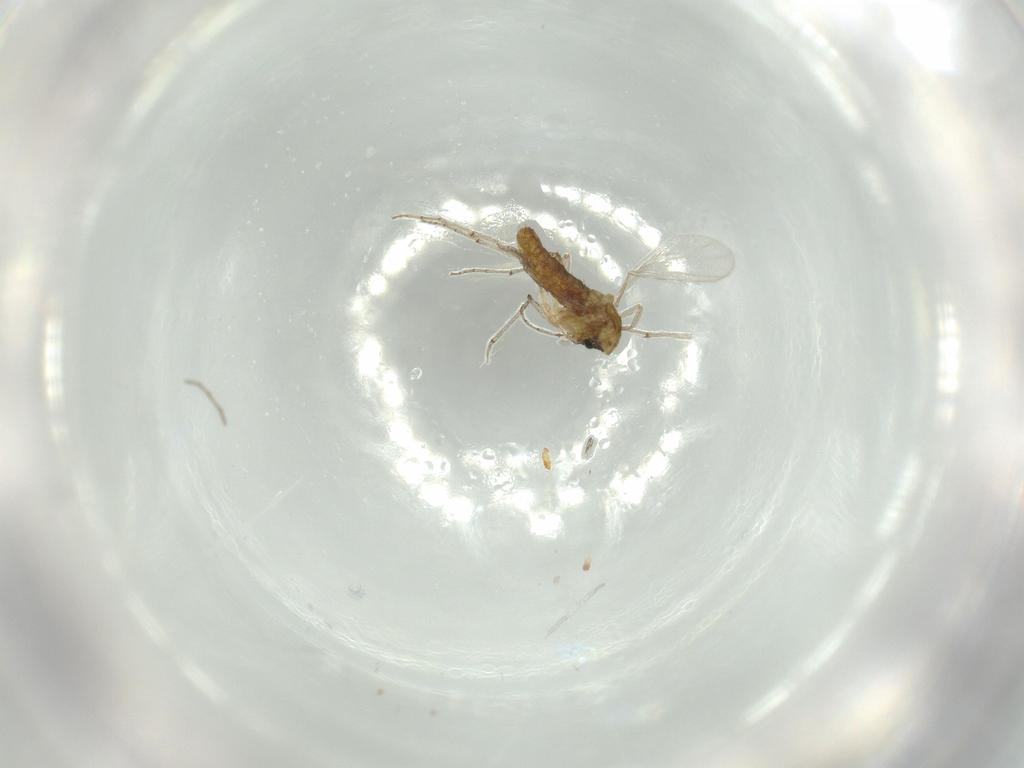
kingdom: Animalia
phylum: Arthropoda
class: Insecta
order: Diptera
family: Chironomidae
